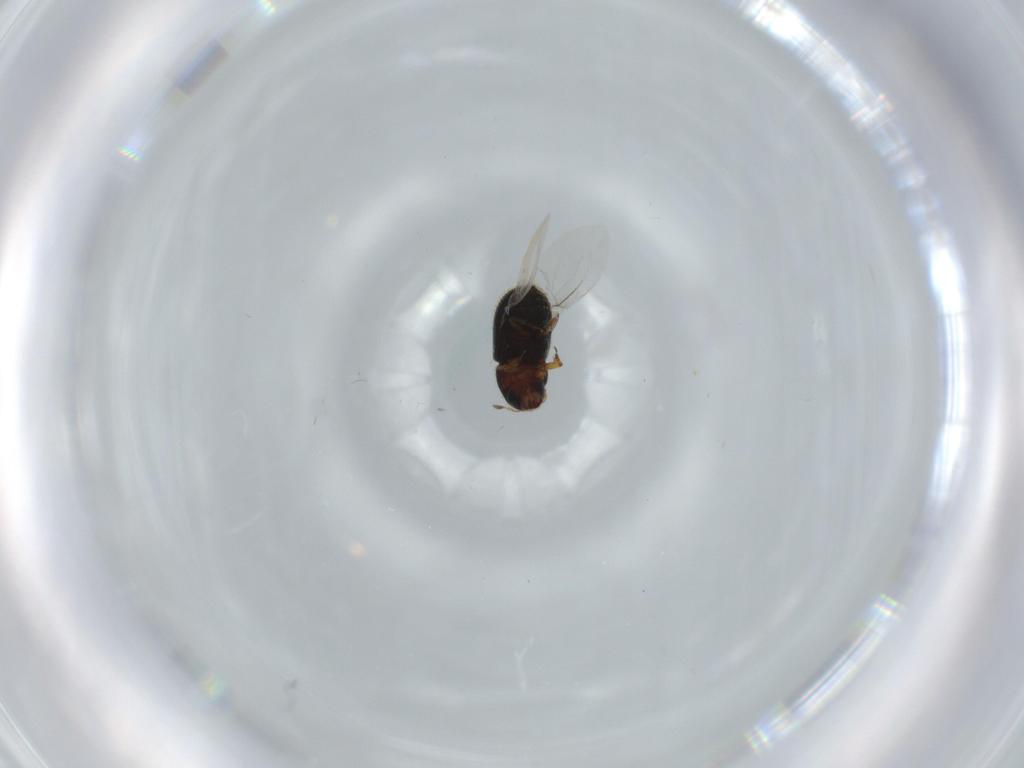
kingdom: Animalia
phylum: Arthropoda
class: Insecta
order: Coleoptera
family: Curculionidae
